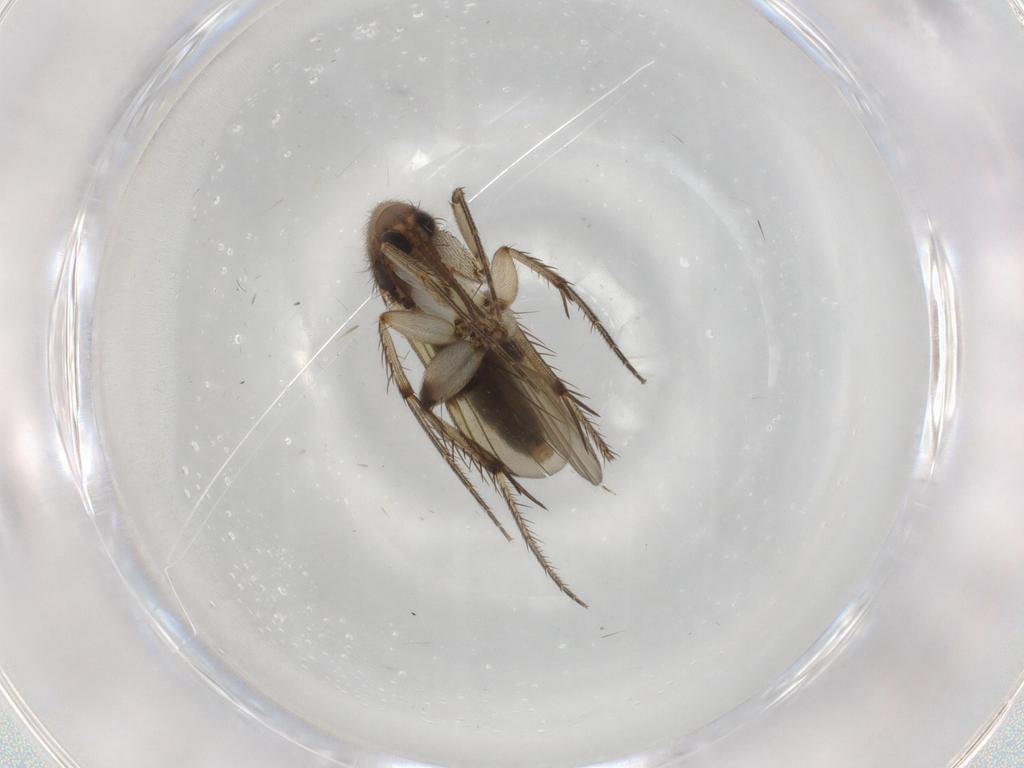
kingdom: Animalia
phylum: Arthropoda
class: Insecta
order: Diptera
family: Mycetophilidae
